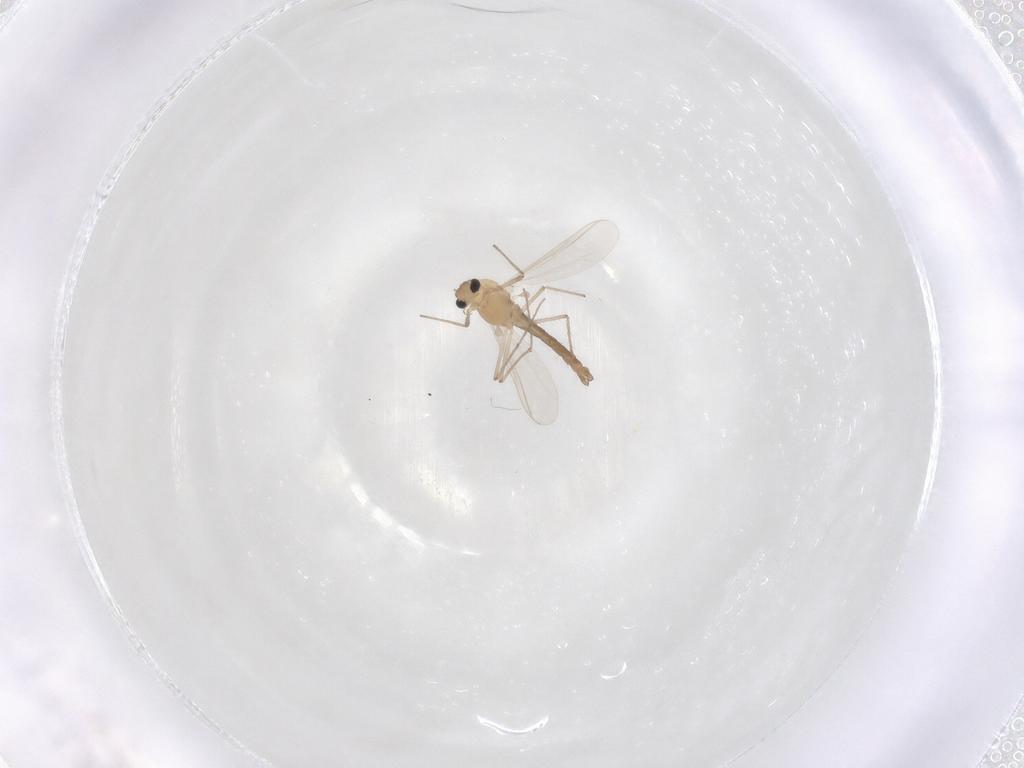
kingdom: Animalia
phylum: Arthropoda
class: Insecta
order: Diptera
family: Chironomidae
